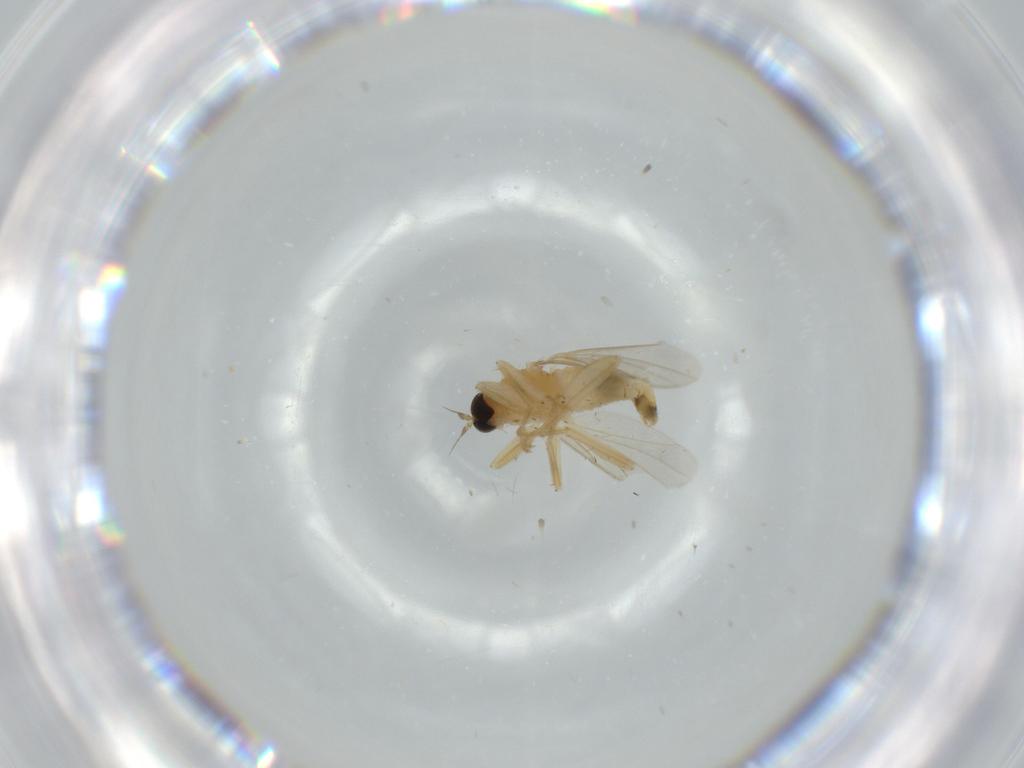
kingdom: Animalia
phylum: Arthropoda
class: Insecta
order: Diptera
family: Hybotidae
